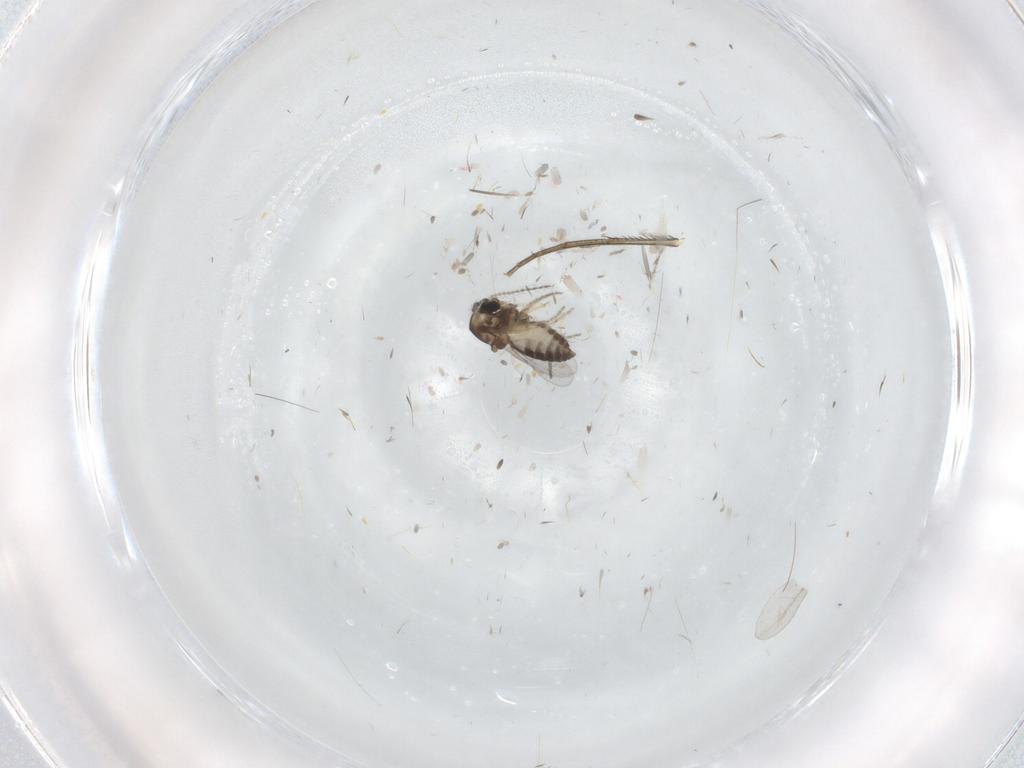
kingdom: Animalia
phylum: Arthropoda
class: Insecta
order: Diptera
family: Ceratopogonidae
